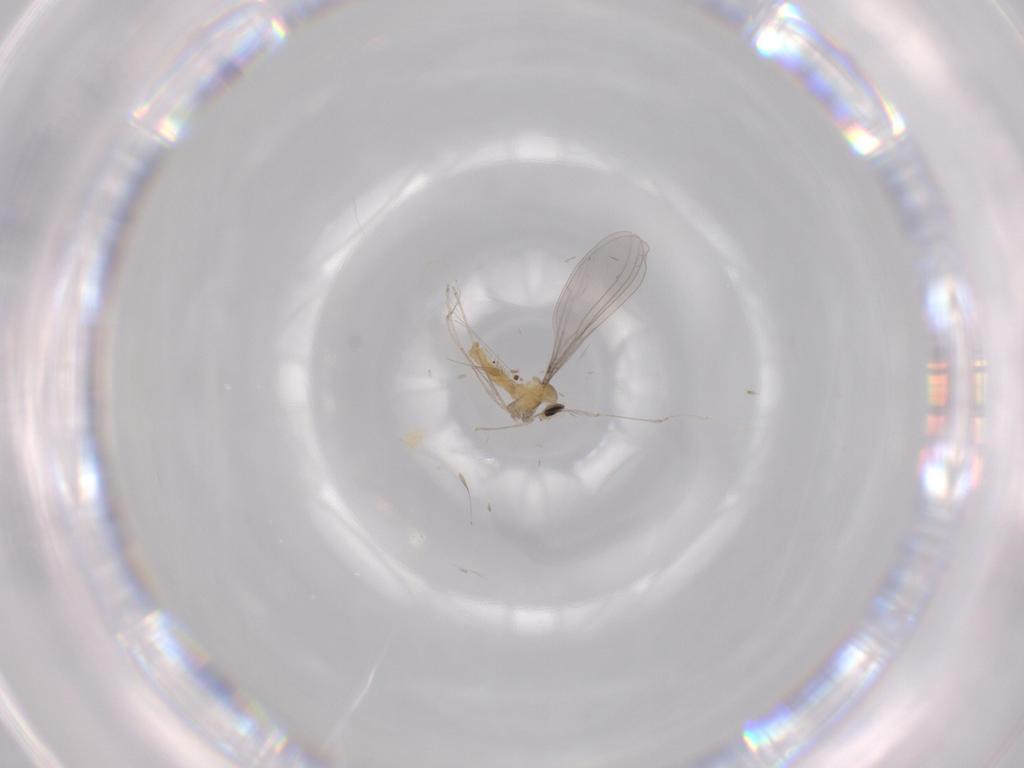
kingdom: Animalia
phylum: Arthropoda
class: Insecta
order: Diptera
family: Cecidomyiidae
